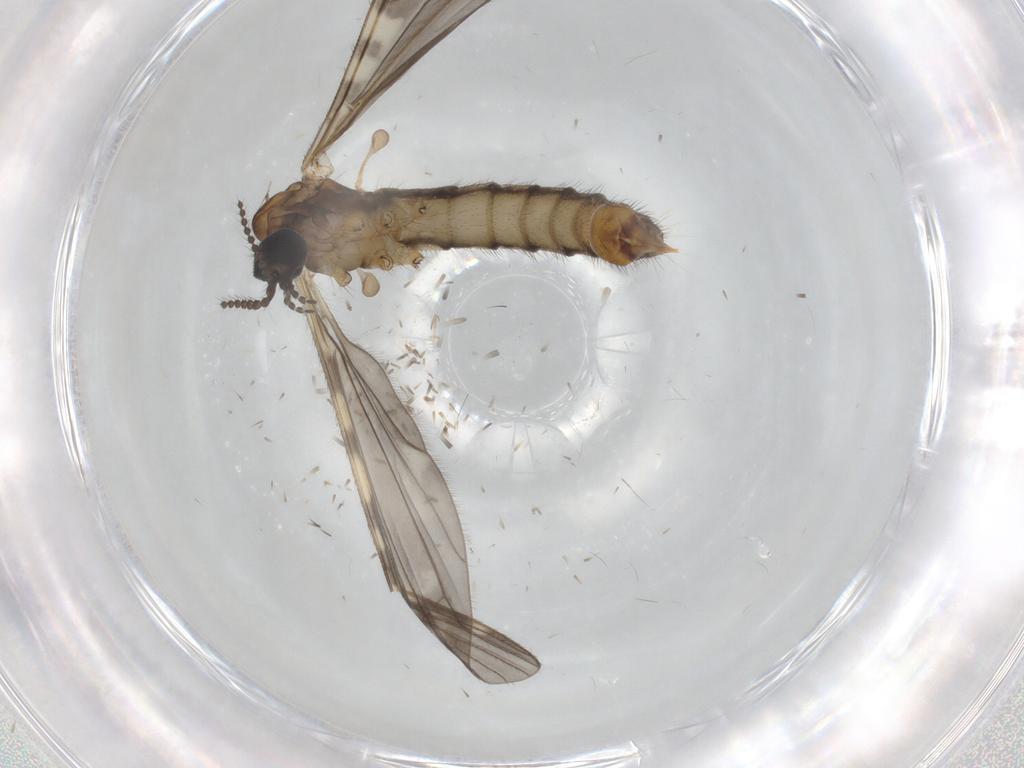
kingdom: Animalia
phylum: Arthropoda
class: Insecta
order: Diptera
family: Limoniidae
